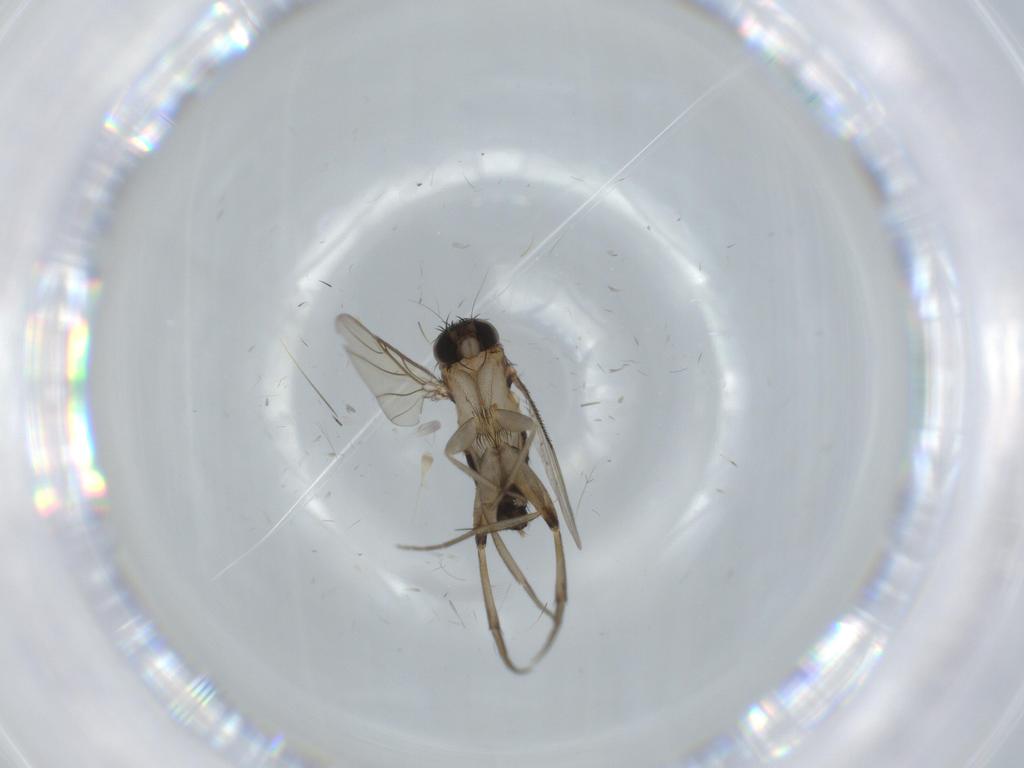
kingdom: Animalia
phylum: Arthropoda
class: Insecta
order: Diptera
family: Phoridae
